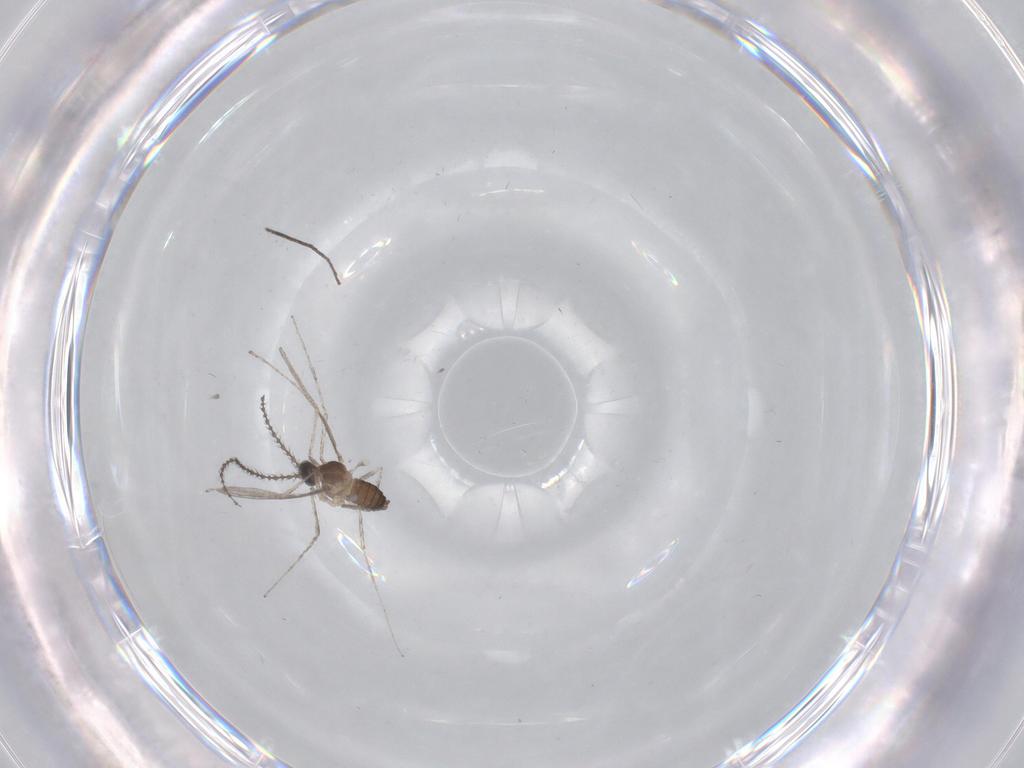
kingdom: Animalia
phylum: Arthropoda
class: Insecta
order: Diptera
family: Cecidomyiidae
